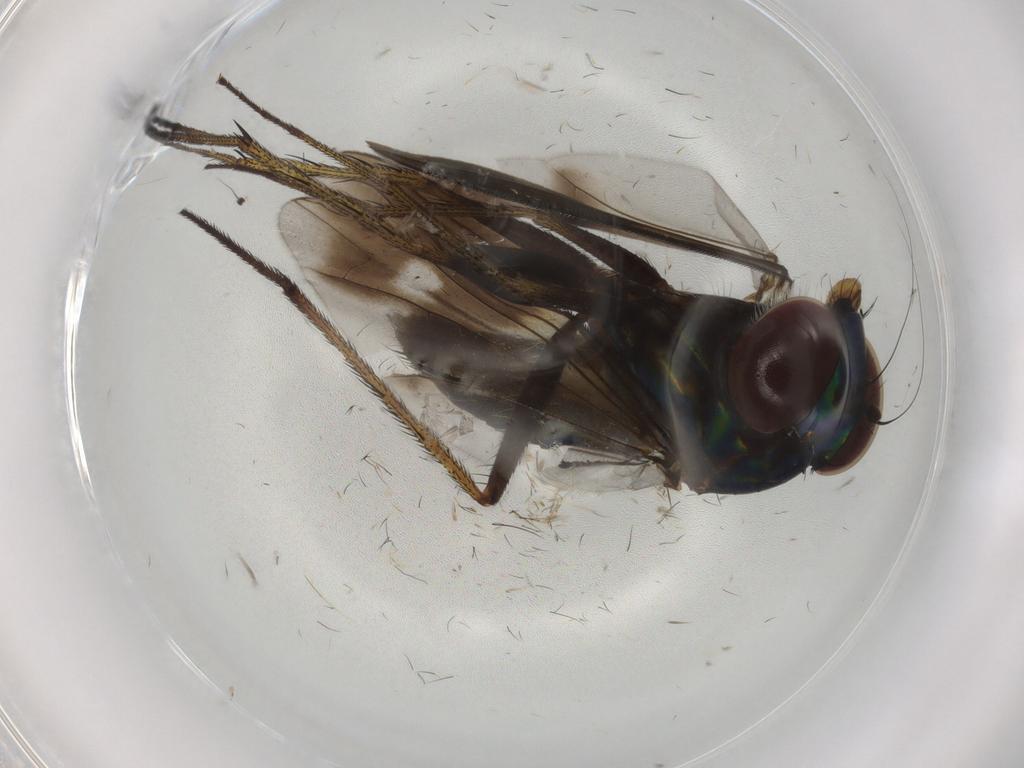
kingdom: Animalia
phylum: Arthropoda
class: Insecta
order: Diptera
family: Dolichopodidae
